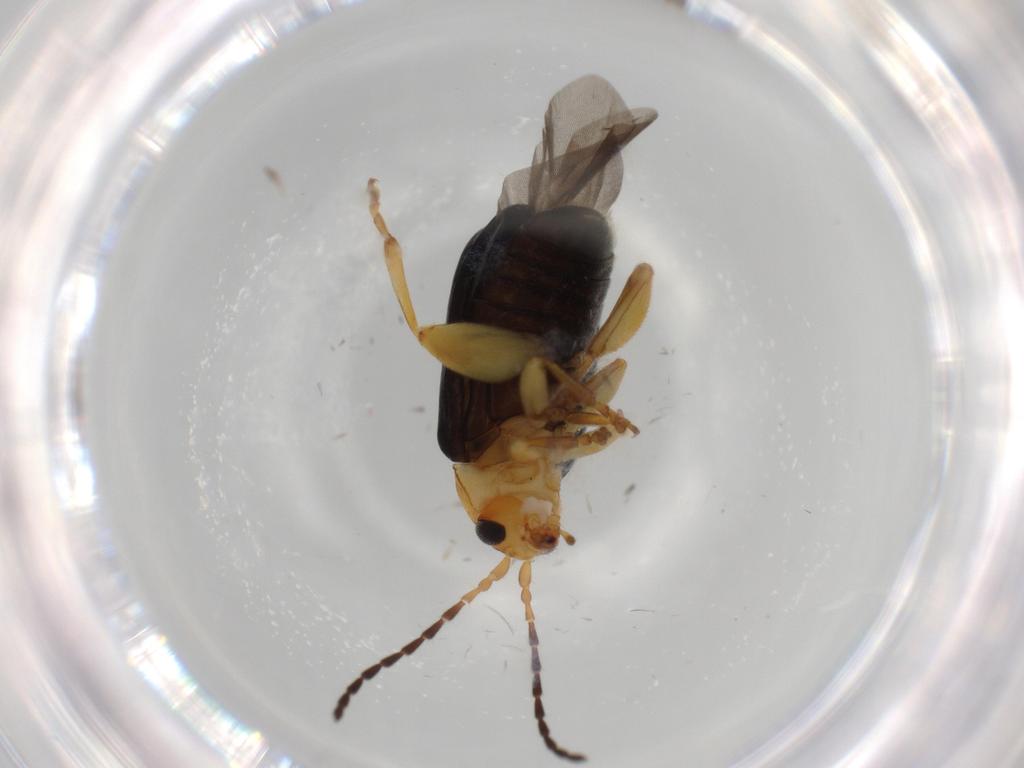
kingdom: Animalia
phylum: Arthropoda
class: Insecta
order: Coleoptera
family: Chrysomelidae
